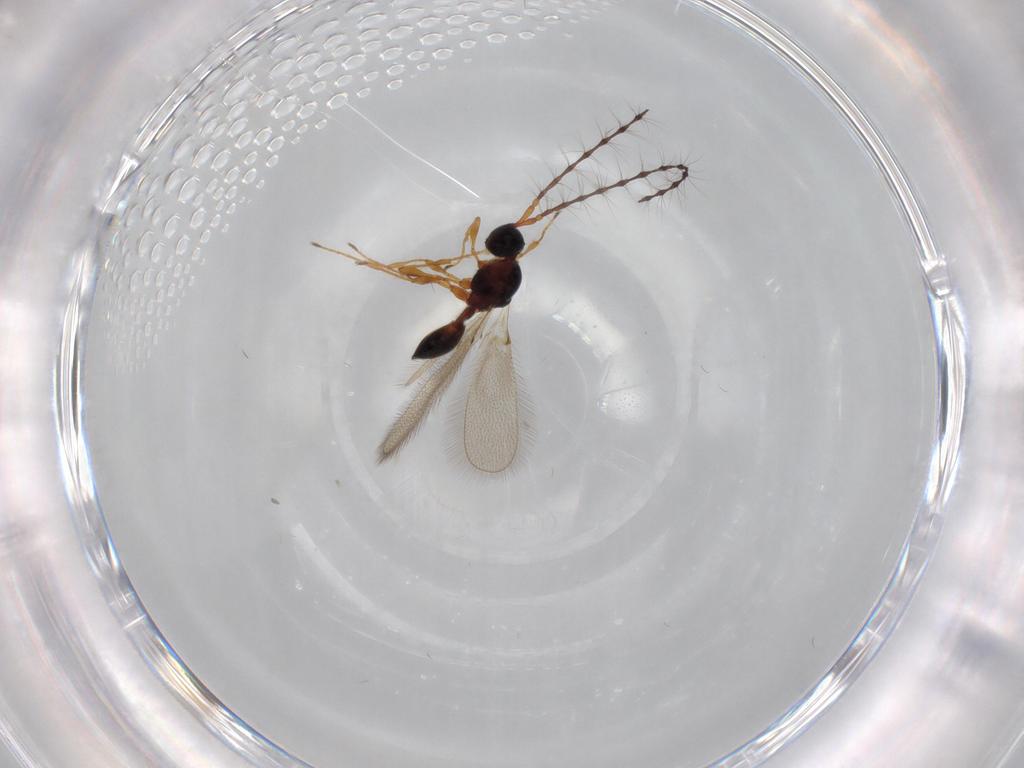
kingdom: Animalia
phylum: Arthropoda
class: Insecta
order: Hymenoptera
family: Diapriidae
